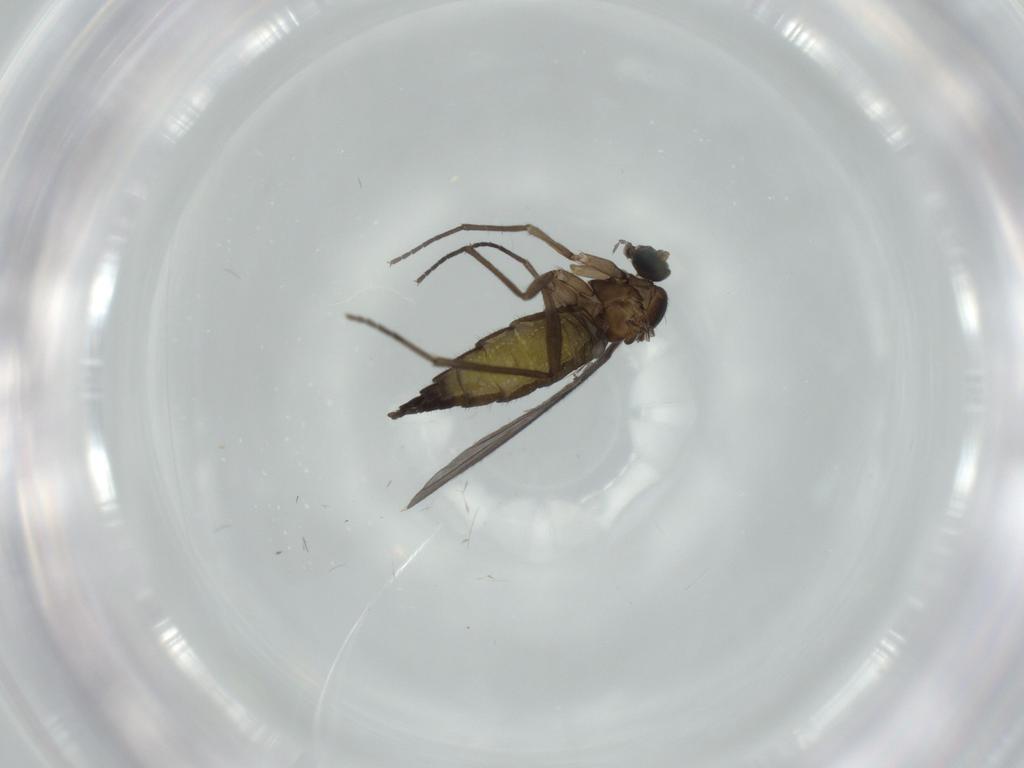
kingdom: Animalia
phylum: Arthropoda
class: Insecta
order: Diptera
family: Sciaridae
